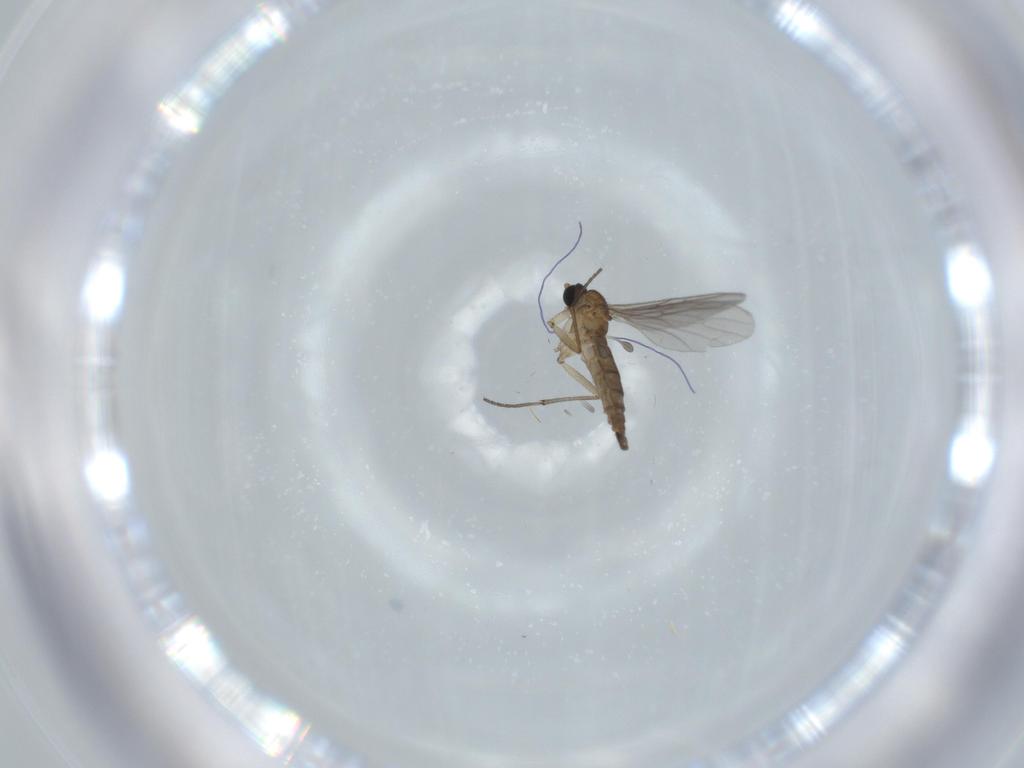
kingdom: Animalia
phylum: Arthropoda
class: Insecta
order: Diptera
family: Sciaridae
